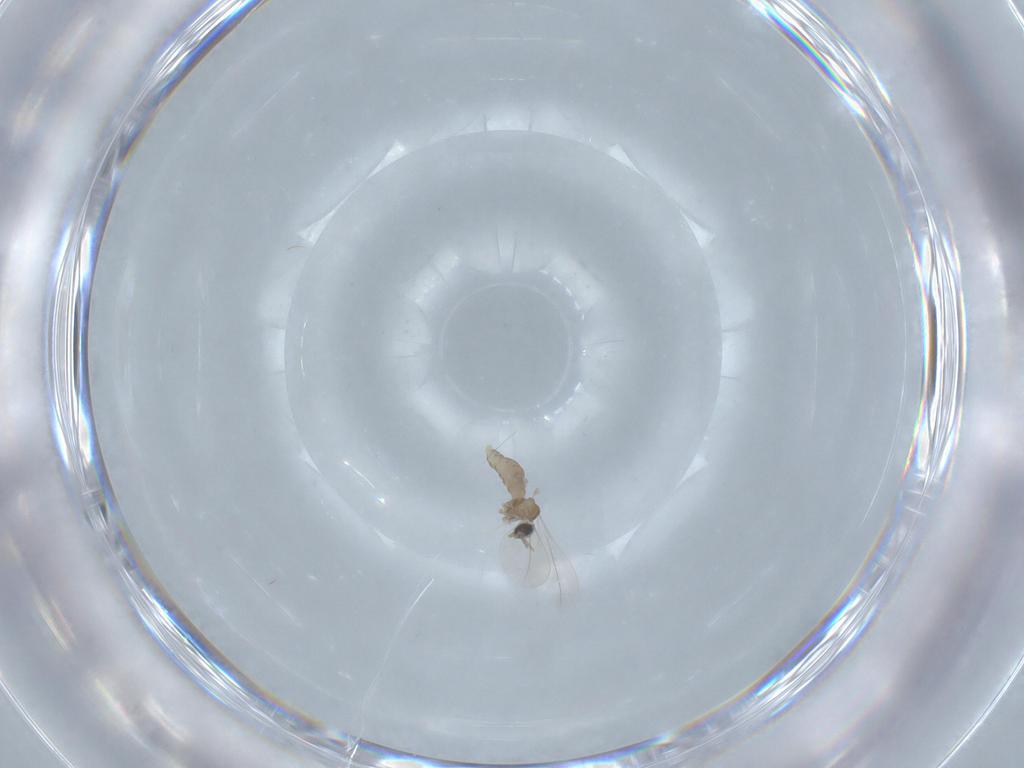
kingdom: Animalia
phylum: Arthropoda
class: Insecta
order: Diptera
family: Cecidomyiidae
